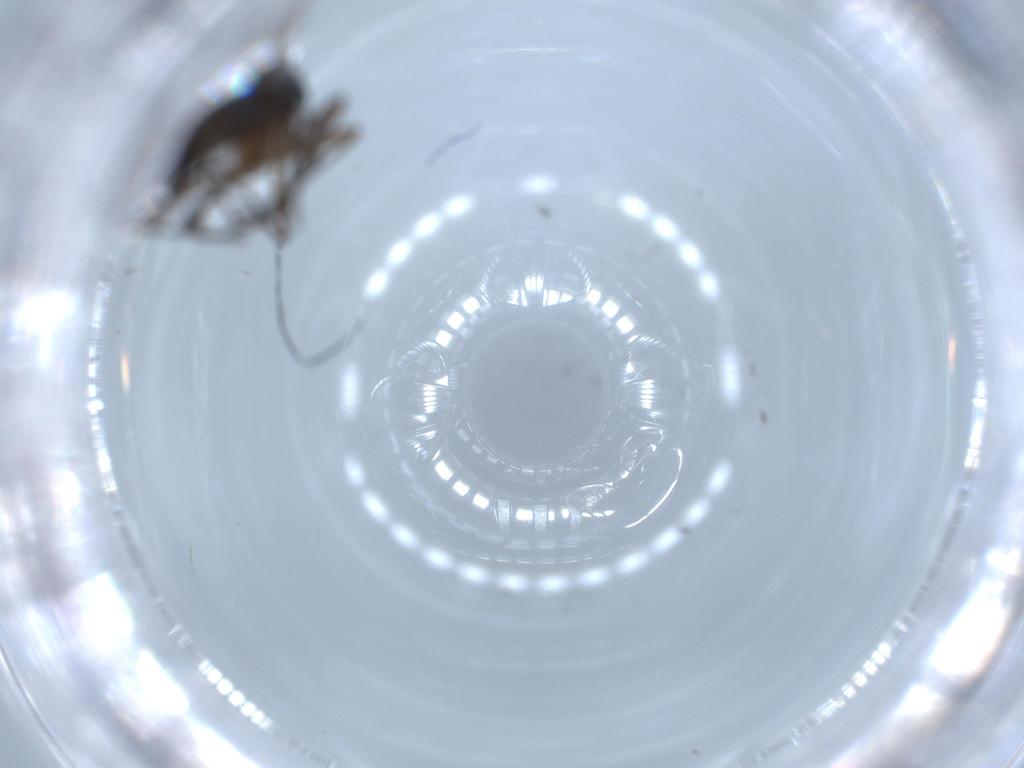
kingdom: Animalia
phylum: Arthropoda
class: Insecta
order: Diptera
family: Sciaridae
